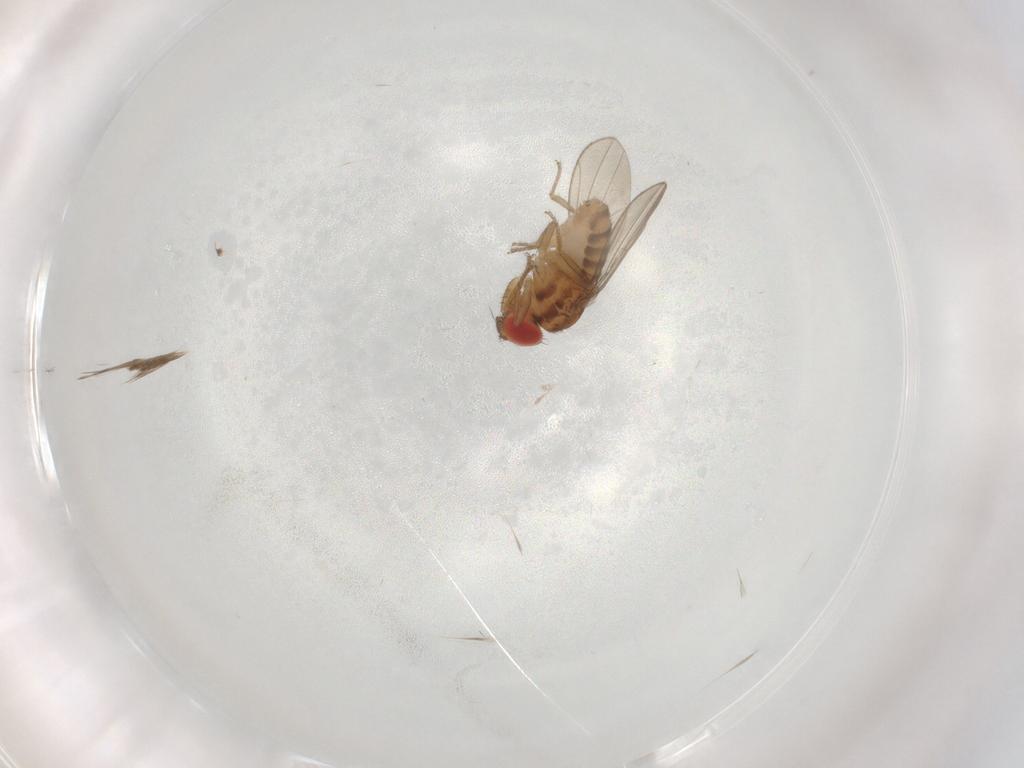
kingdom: Animalia
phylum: Arthropoda
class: Insecta
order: Diptera
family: Drosophilidae
